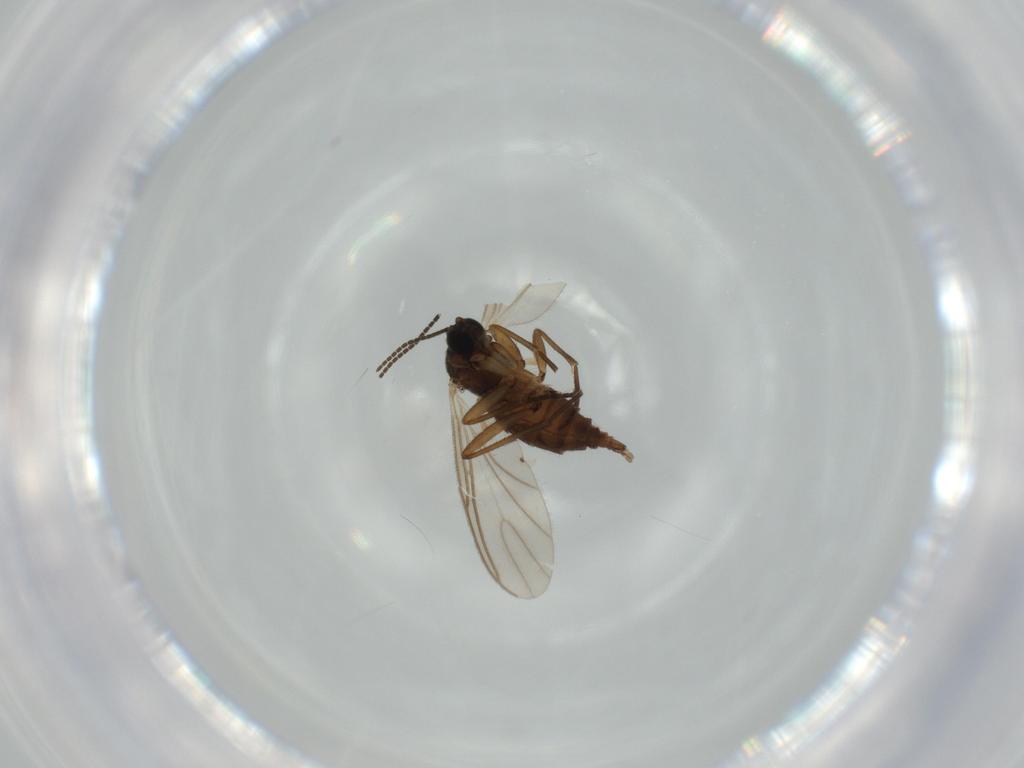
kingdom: Animalia
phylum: Arthropoda
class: Insecta
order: Diptera
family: Sciaridae
